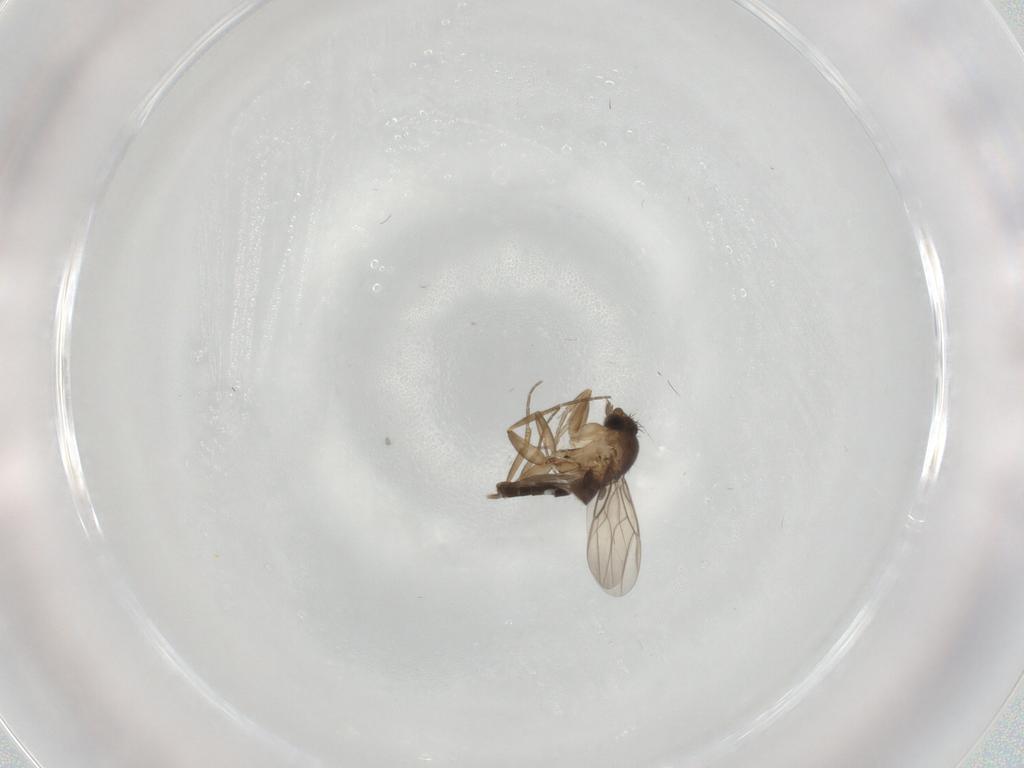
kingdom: Animalia
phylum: Arthropoda
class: Insecta
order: Diptera
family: Phoridae
